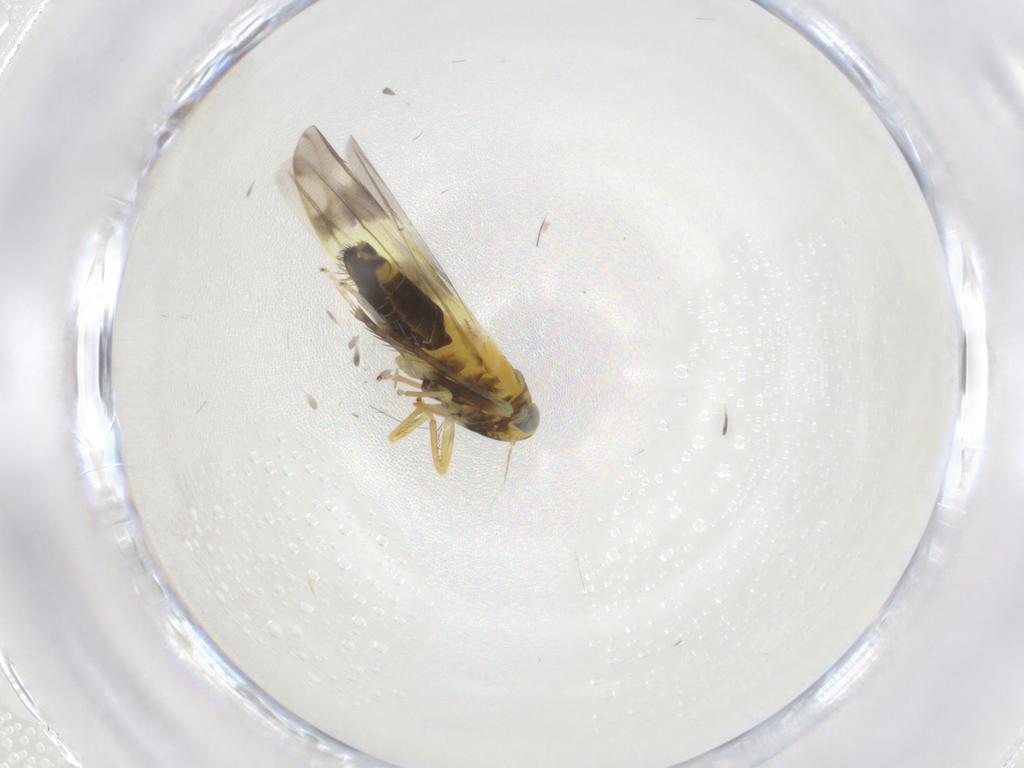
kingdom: Animalia
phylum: Arthropoda
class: Insecta
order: Hemiptera
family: Cicadellidae
